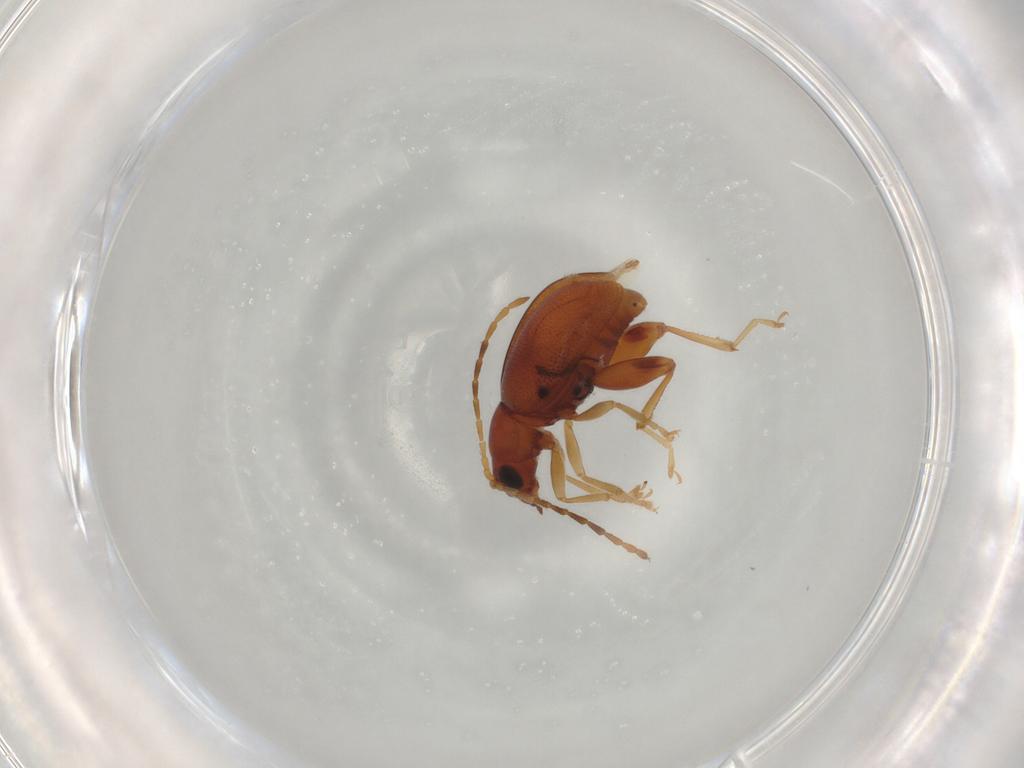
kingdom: Animalia
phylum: Arthropoda
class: Insecta
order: Coleoptera
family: Chrysomelidae
